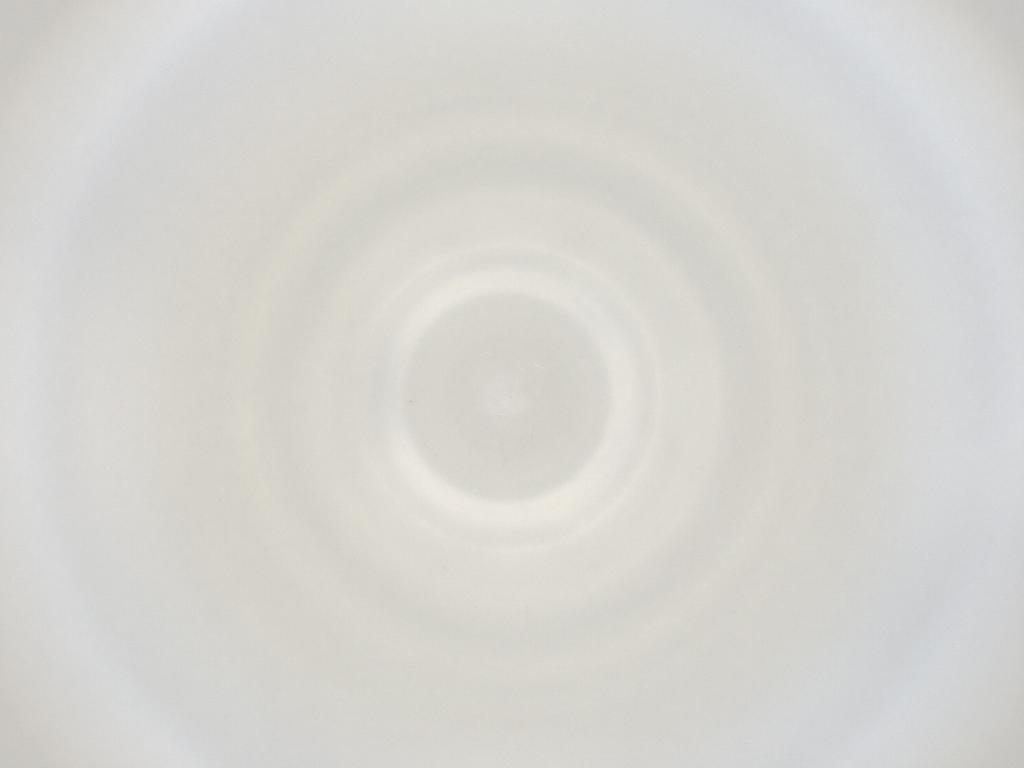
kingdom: Animalia
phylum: Arthropoda
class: Insecta
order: Diptera
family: Cecidomyiidae
